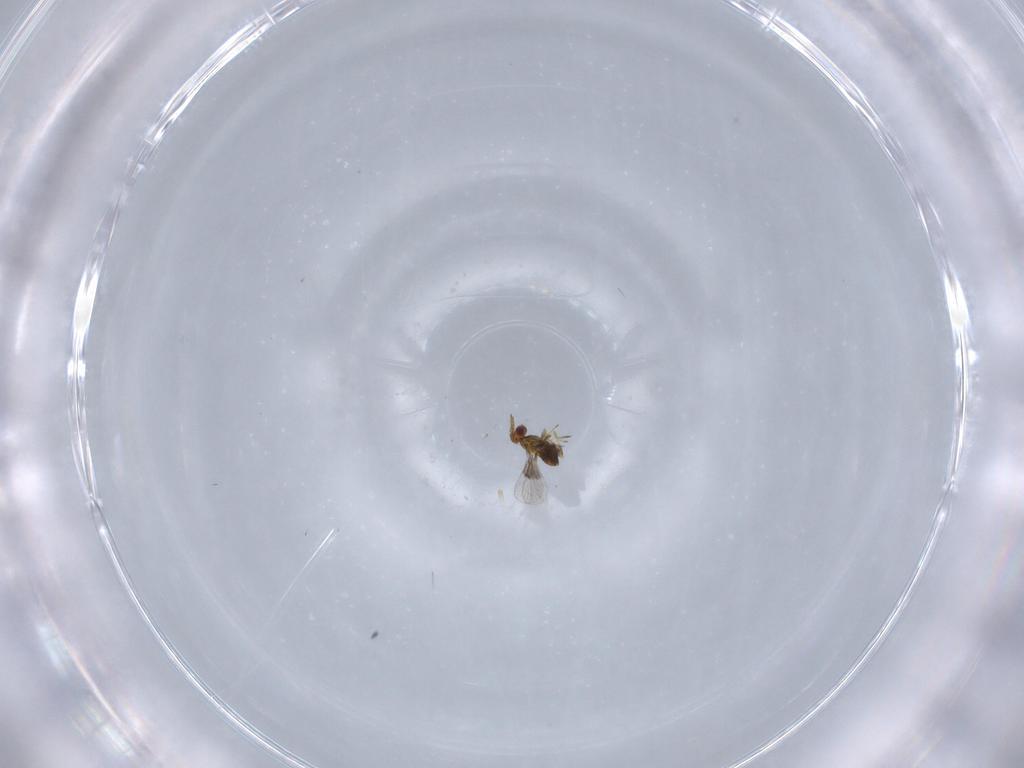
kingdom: Animalia
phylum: Arthropoda
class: Insecta
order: Hymenoptera
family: Trichogrammatidae
